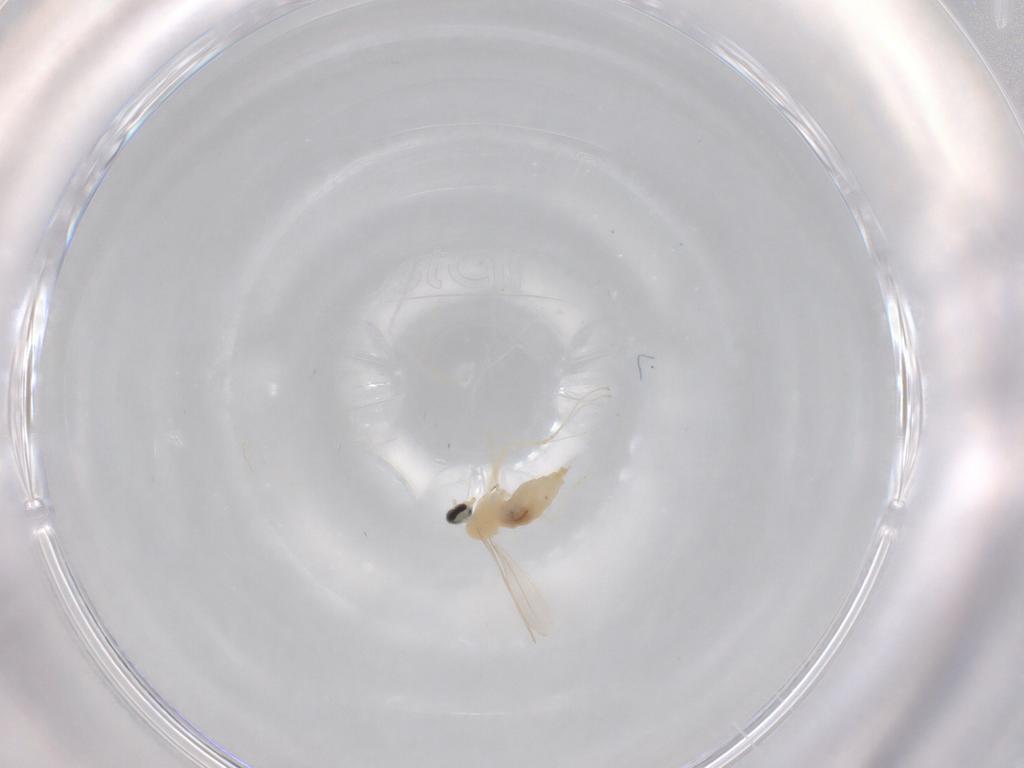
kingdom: Animalia
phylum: Arthropoda
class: Insecta
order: Diptera
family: Cecidomyiidae
